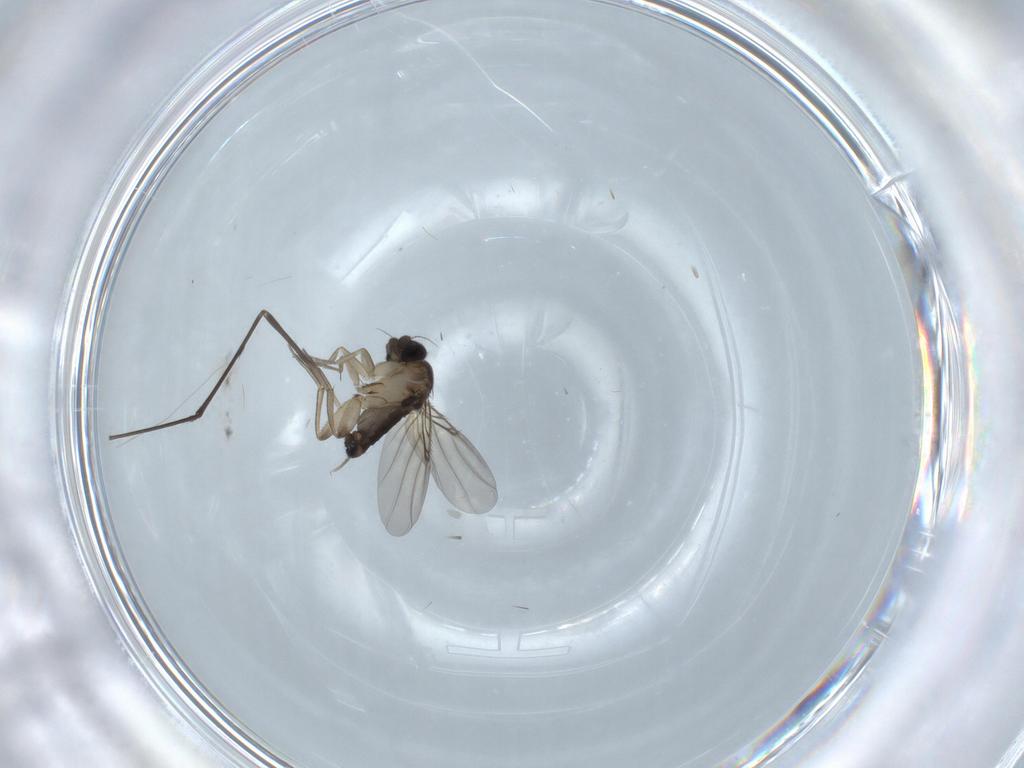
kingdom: Animalia
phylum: Arthropoda
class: Insecta
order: Diptera
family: Cecidomyiidae
